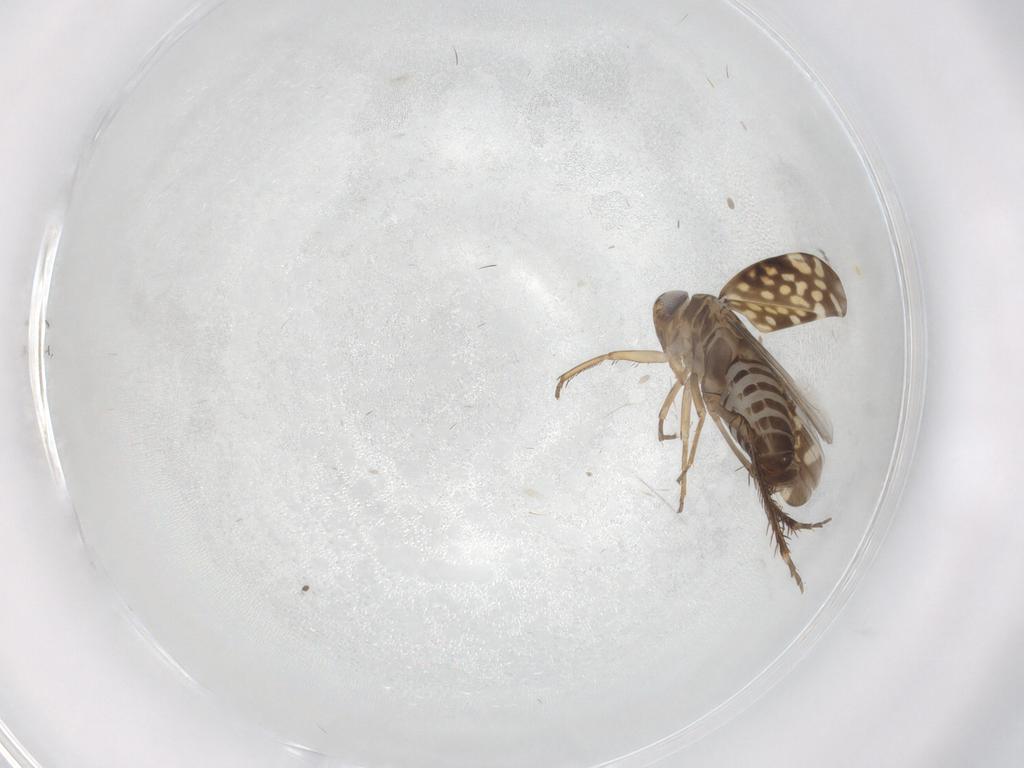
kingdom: Animalia
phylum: Arthropoda
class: Insecta
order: Hemiptera
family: Cicadellidae
